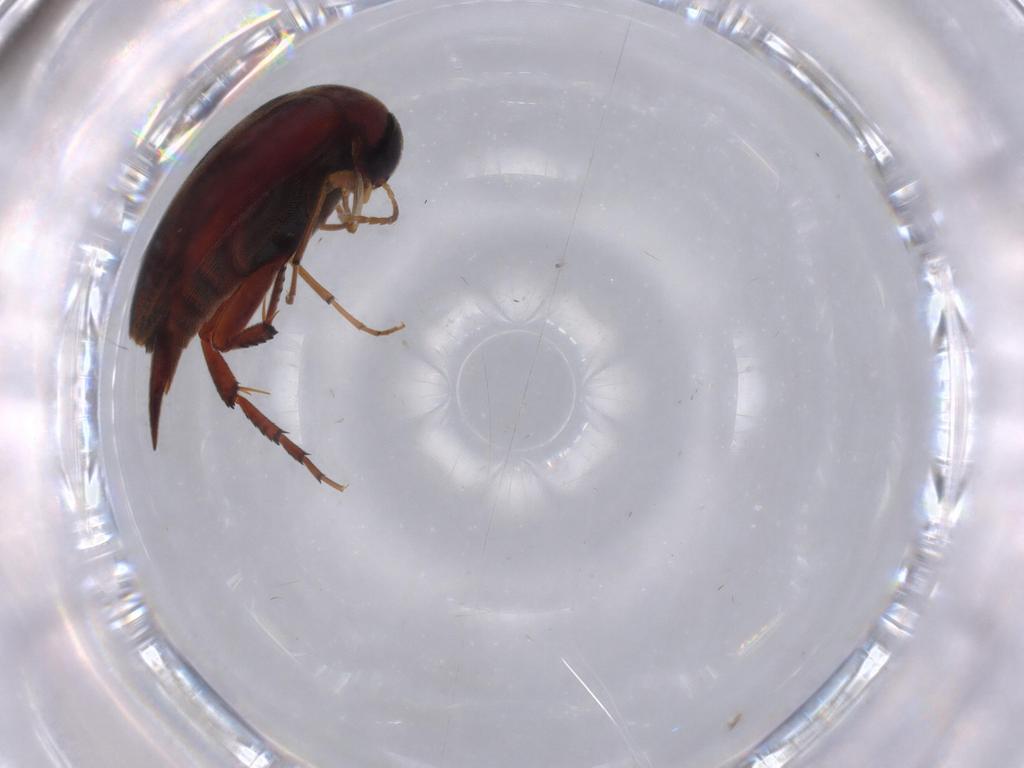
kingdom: Animalia
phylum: Arthropoda
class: Insecta
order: Coleoptera
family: Mordellidae
